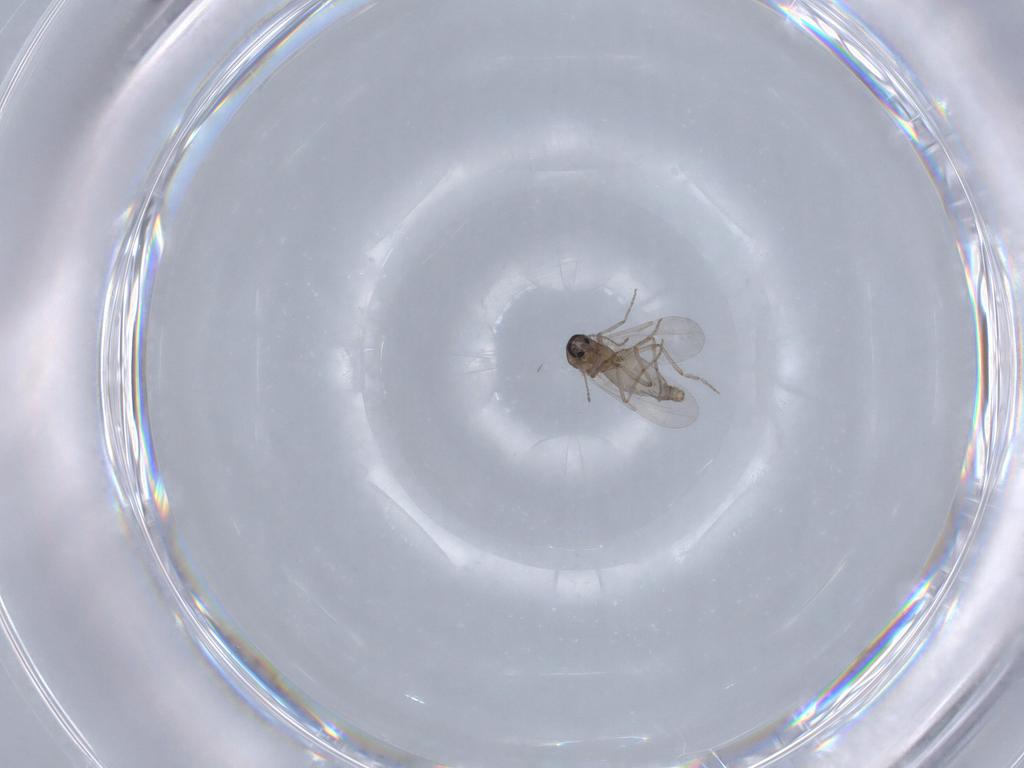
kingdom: Animalia
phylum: Arthropoda
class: Insecta
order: Diptera
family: Ceratopogonidae
